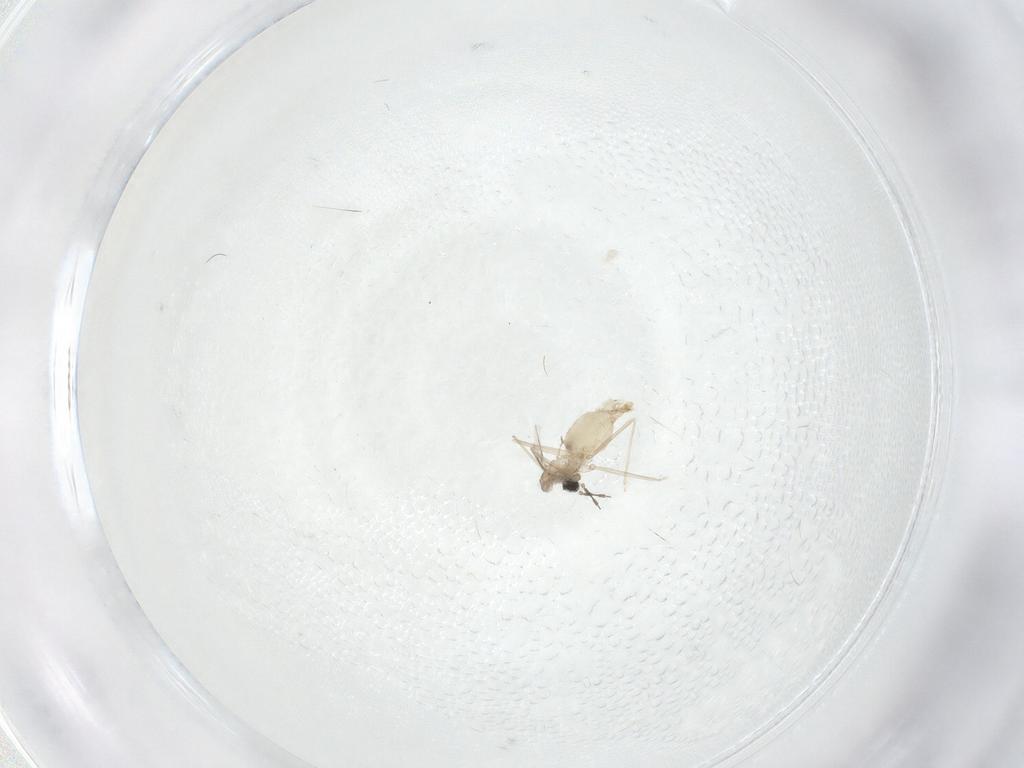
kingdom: Animalia
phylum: Arthropoda
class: Insecta
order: Diptera
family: Cecidomyiidae
